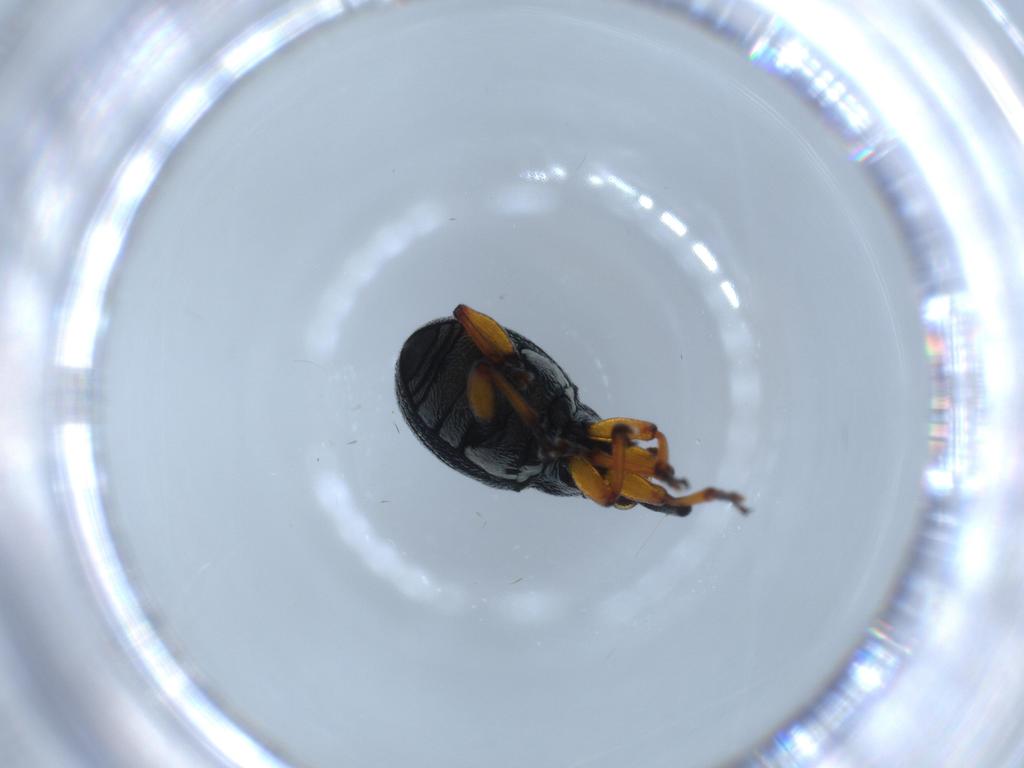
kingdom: Animalia
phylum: Arthropoda
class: Insecta
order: Coleoptera
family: Brentidae
